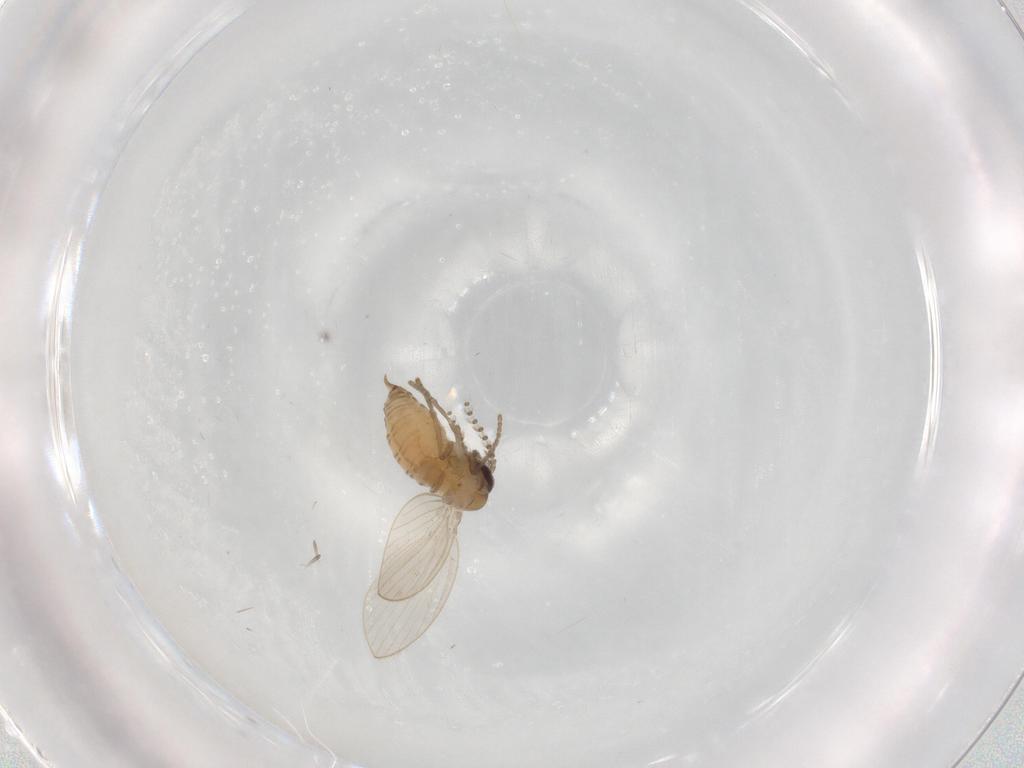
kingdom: Animalia
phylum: Arthropoda
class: Insecta
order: Diptera
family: Psychodidae
